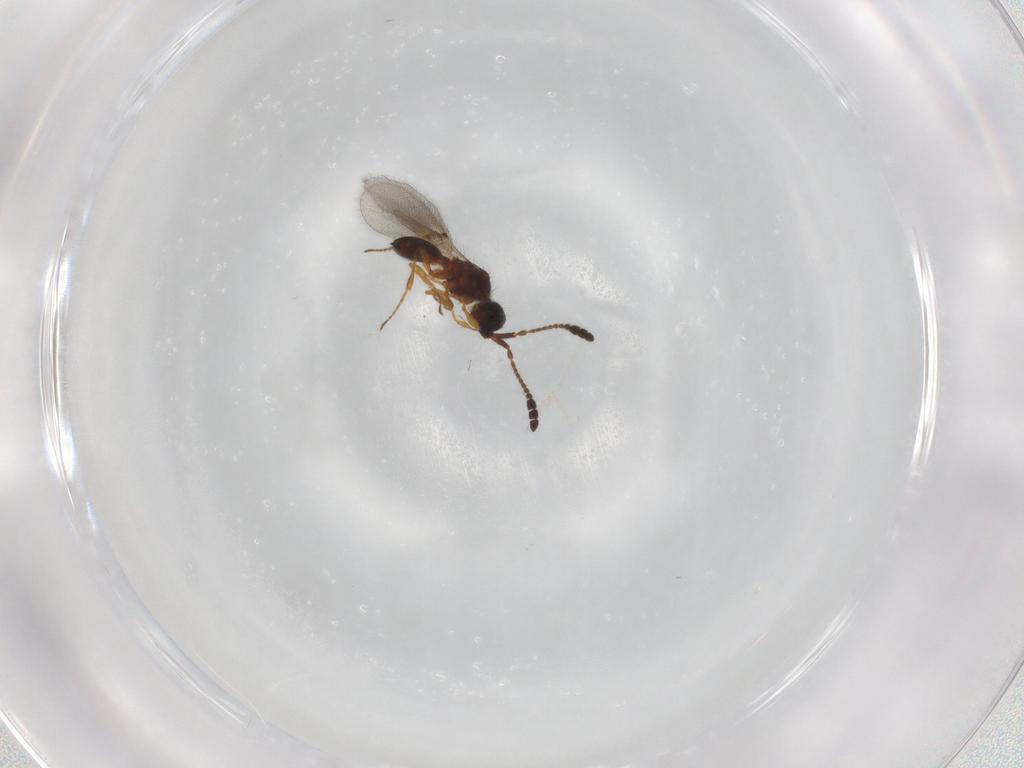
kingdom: Animalia
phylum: Arthropoda
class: Insecta
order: Hymenoptera
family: Diapriidae
